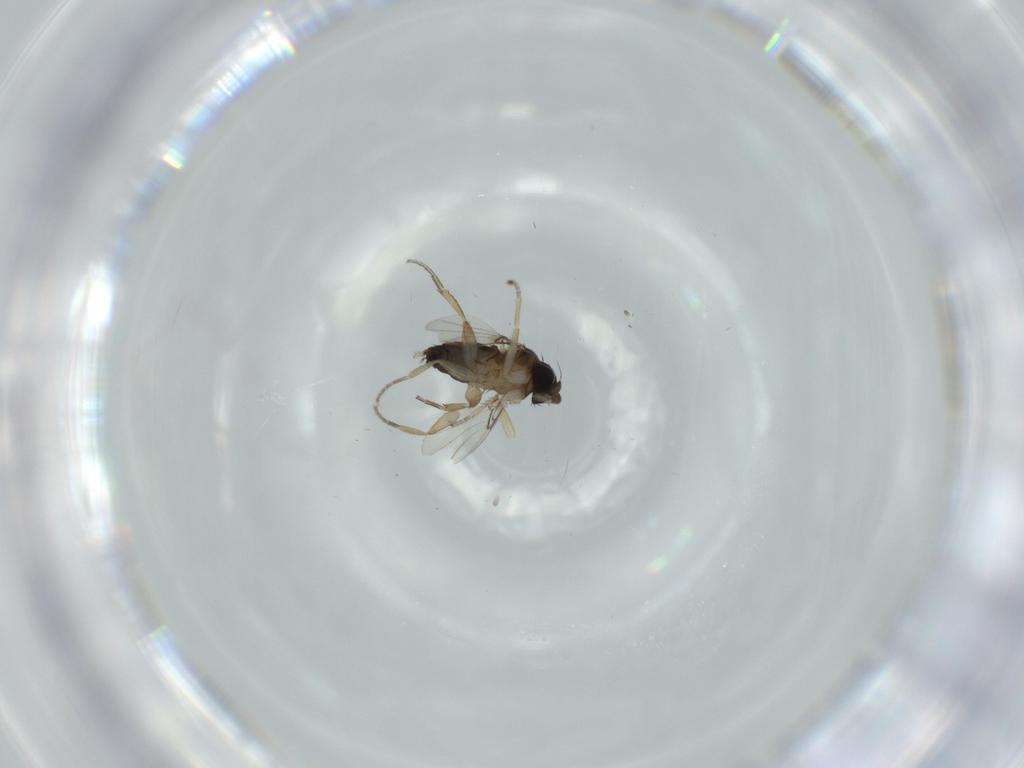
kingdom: Animalia
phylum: Arthropoda
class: Insecta
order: Diptera
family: Phoridae
